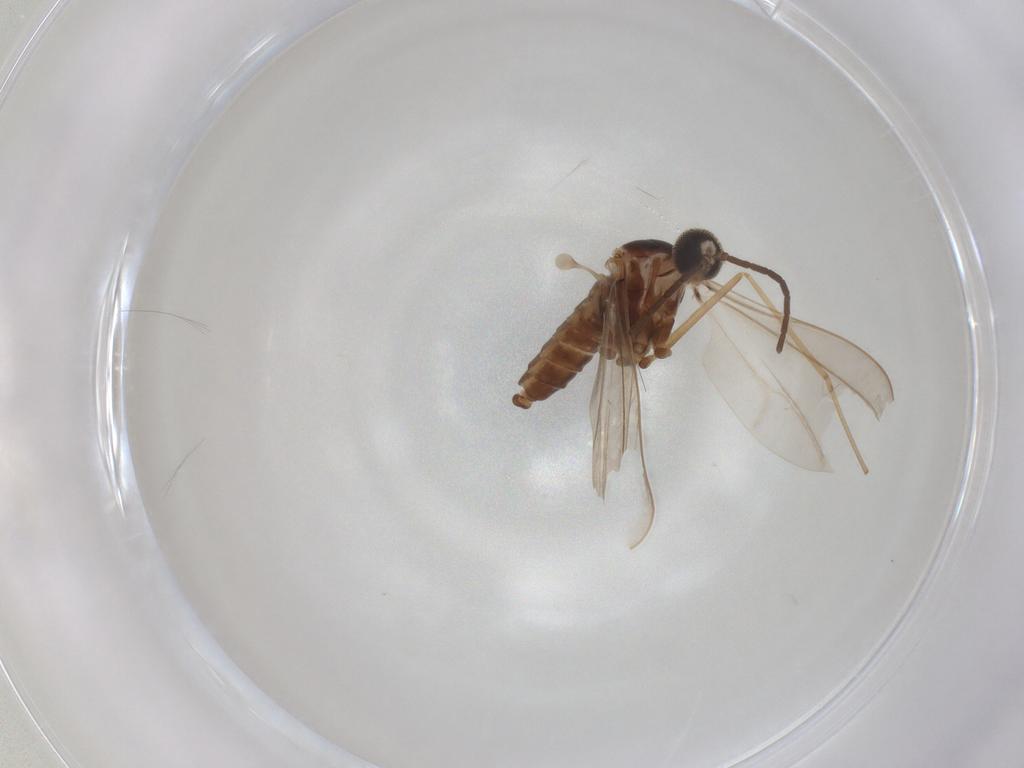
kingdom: Animalia
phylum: Arthropoda
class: Insecta
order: Diptera
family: Cecidomyiidae
